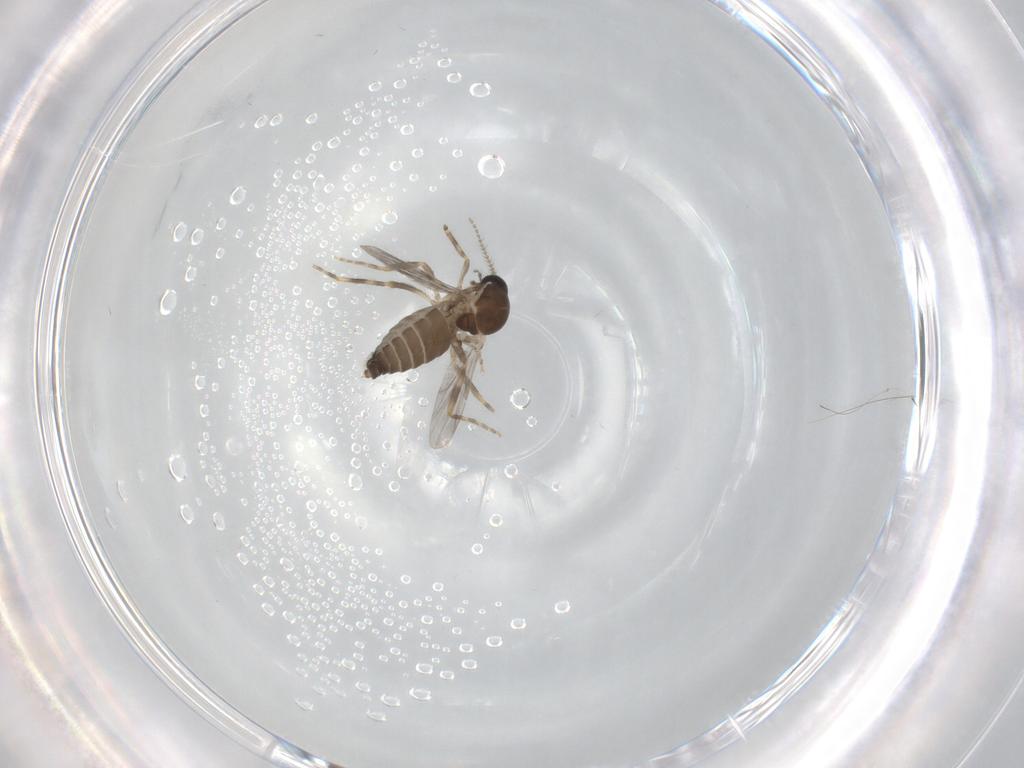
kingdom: Animalia
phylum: Arthropoda
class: Insecta
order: Diptera
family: Ceratopogonidae
